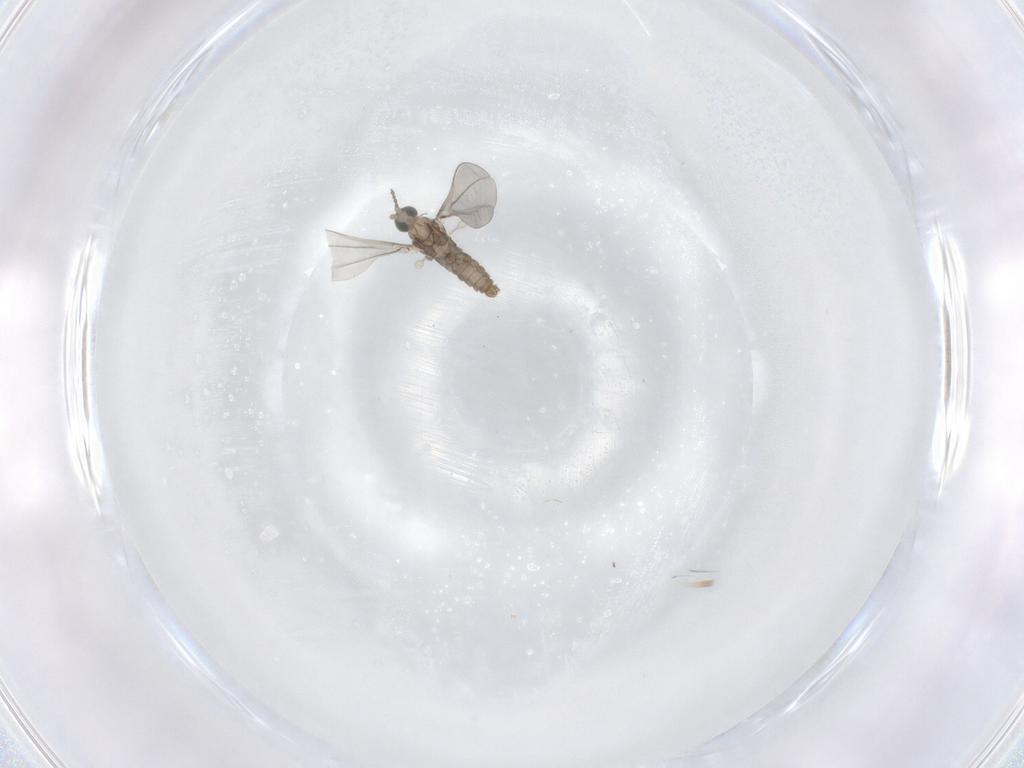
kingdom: Animalia
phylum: Arthropoda
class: Insecta
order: Diptera
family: Cecidomyiidae
